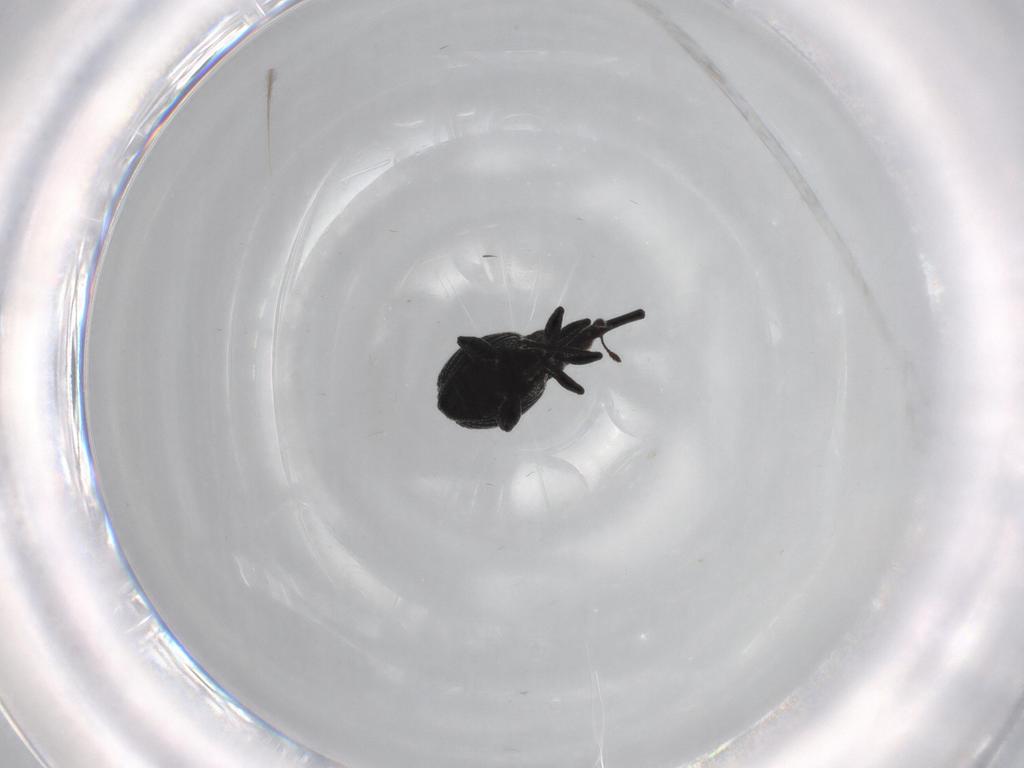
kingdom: Animalia
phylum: Arthropoda
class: Insecta
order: Coleoptera
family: Brentidae
